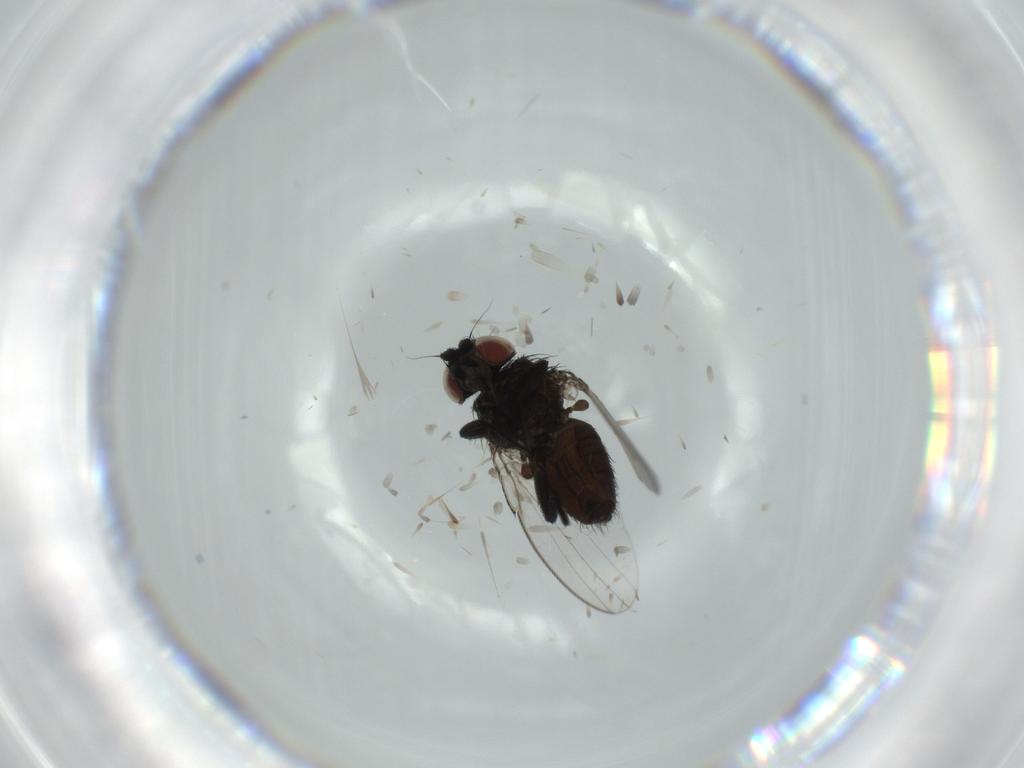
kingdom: Animalia
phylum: Arthropoda
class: Insecta
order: Diptera
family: Milichiidae
